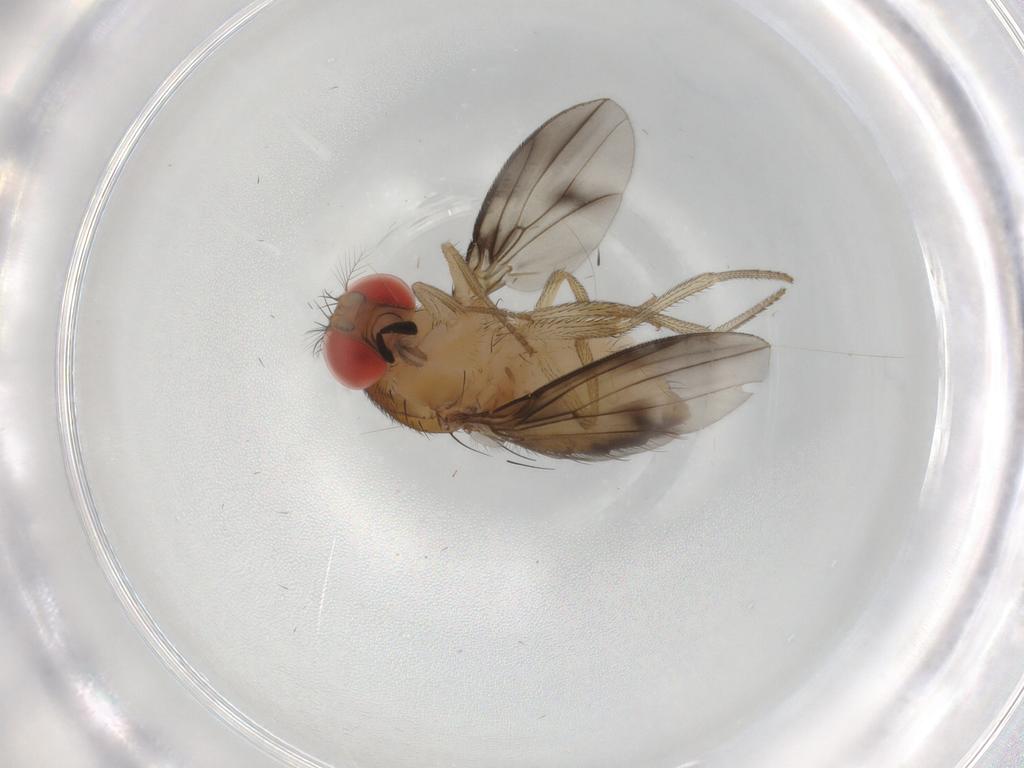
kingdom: Animalia
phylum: Arthropoda
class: Insecta
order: Diptera
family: Drosophilidae
